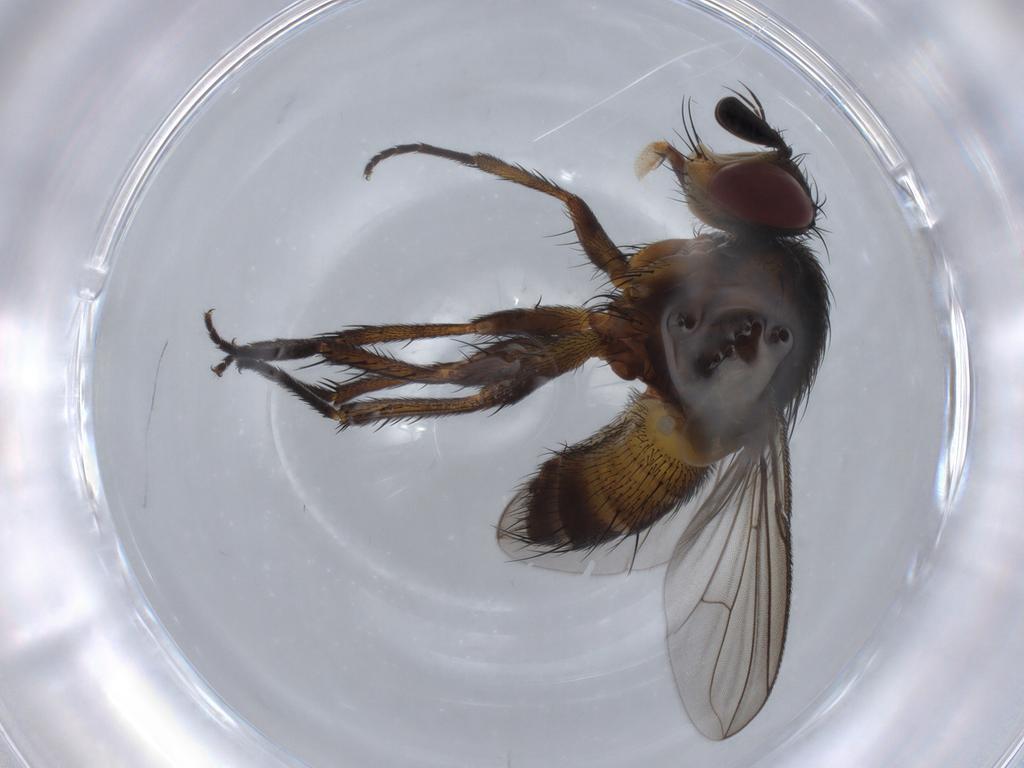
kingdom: Animalia
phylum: Arthropoda
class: Insecta
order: Diptera
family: Tachinidae
